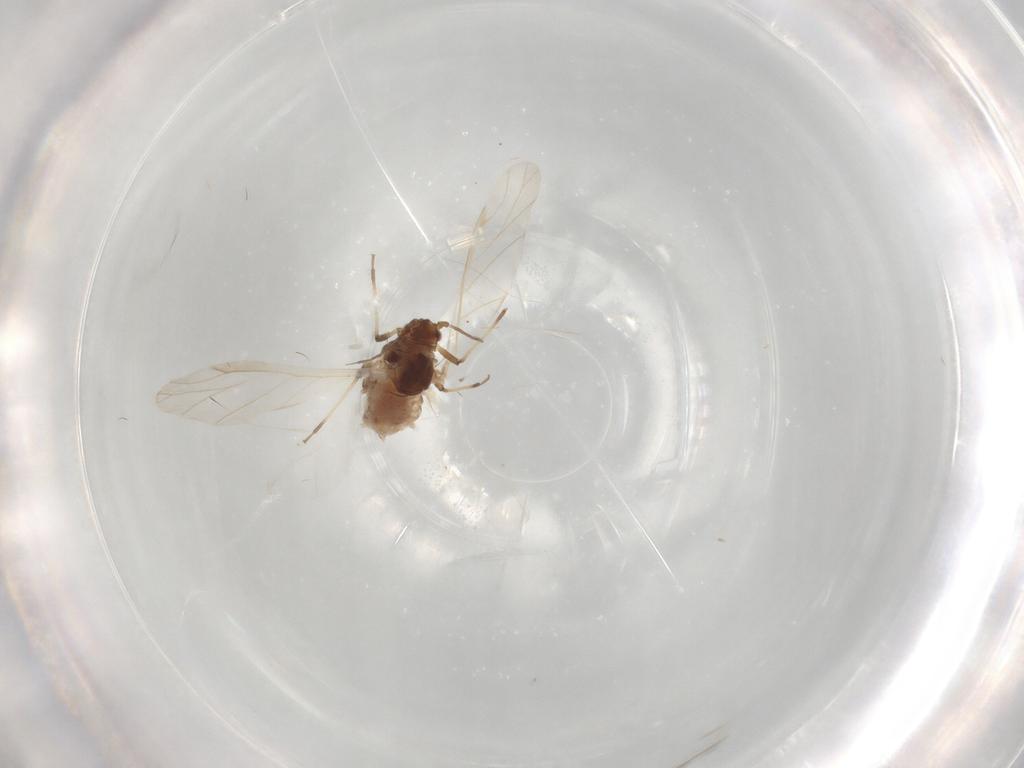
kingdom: Animalia
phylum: Arthropoda
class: Insecta
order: Hemiptera
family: Aphididae
